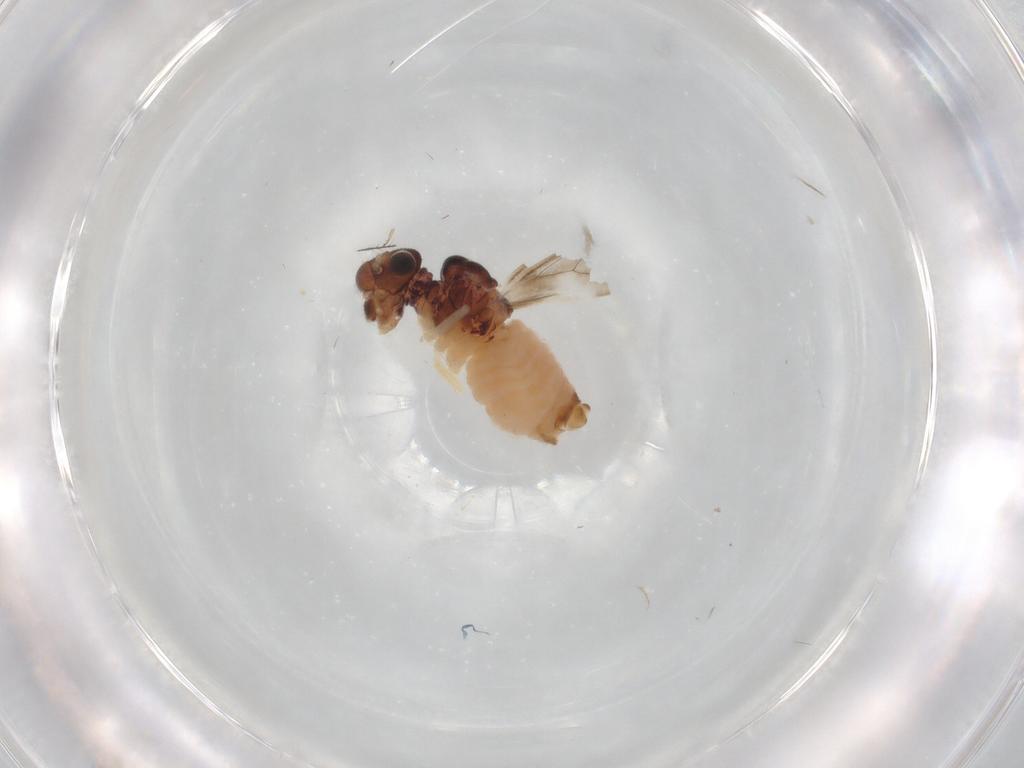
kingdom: Animalia
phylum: Arthropoda
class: Insecta
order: Psocodea
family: Caeciliusidae
